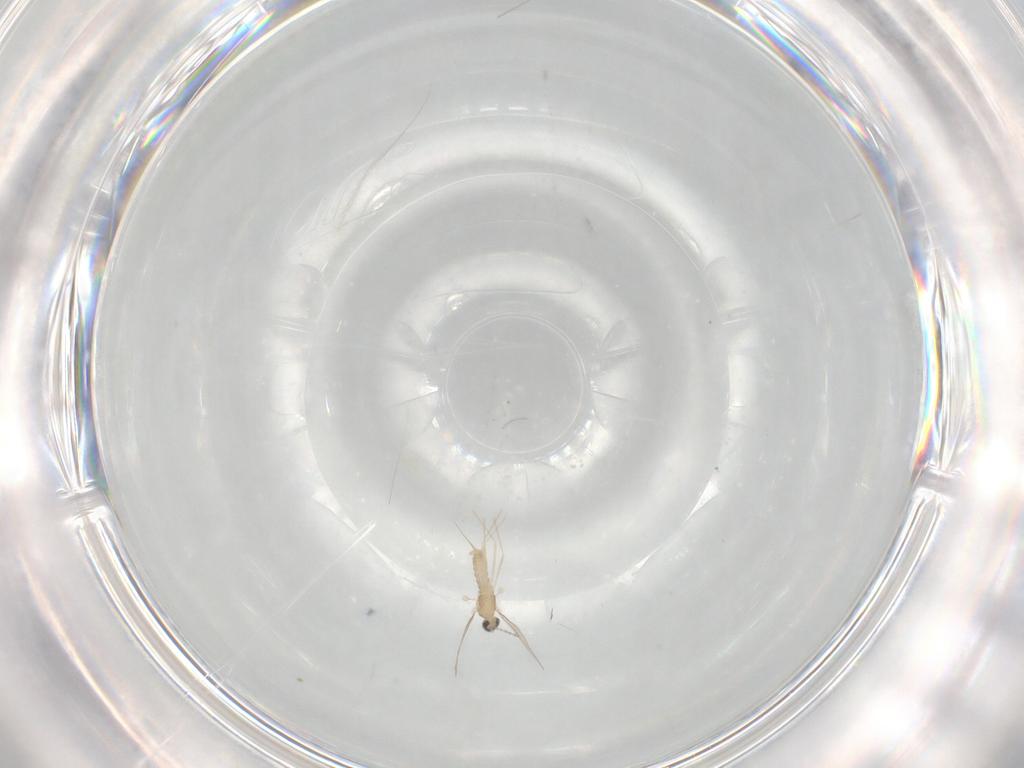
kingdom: Animalia
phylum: Arthropoda
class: Insecta
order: Diptera
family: Cecidomyiidae
